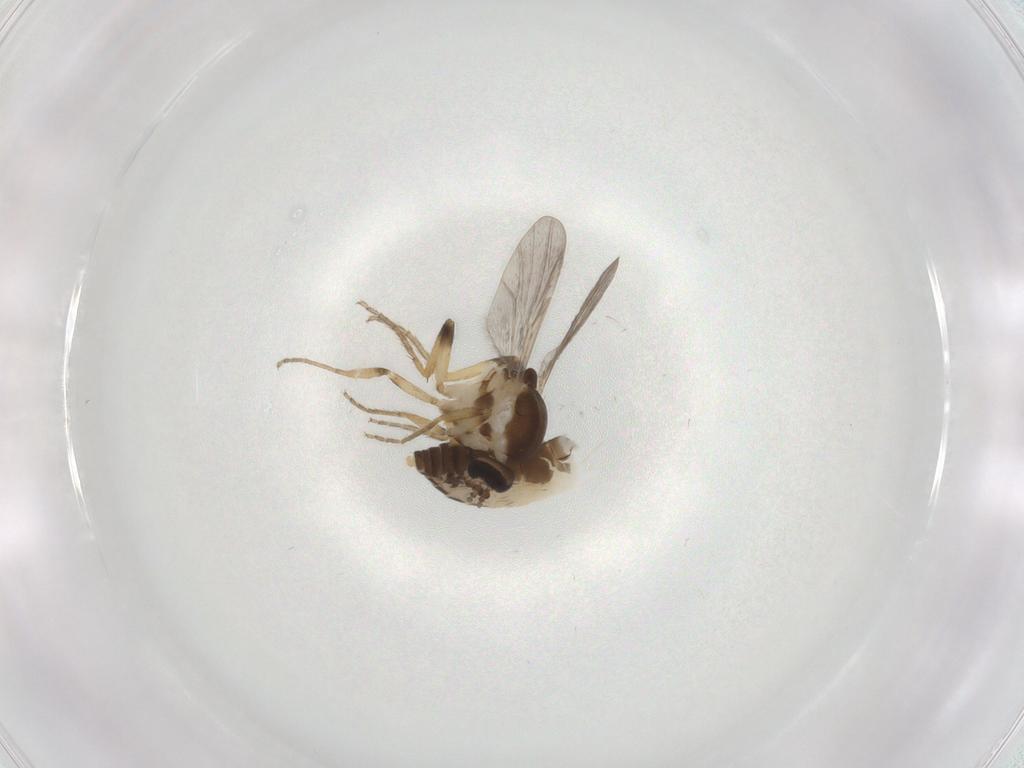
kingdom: Animalia
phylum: Arthropoda
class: Insecta
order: Diptera
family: Ceratopogonidae
